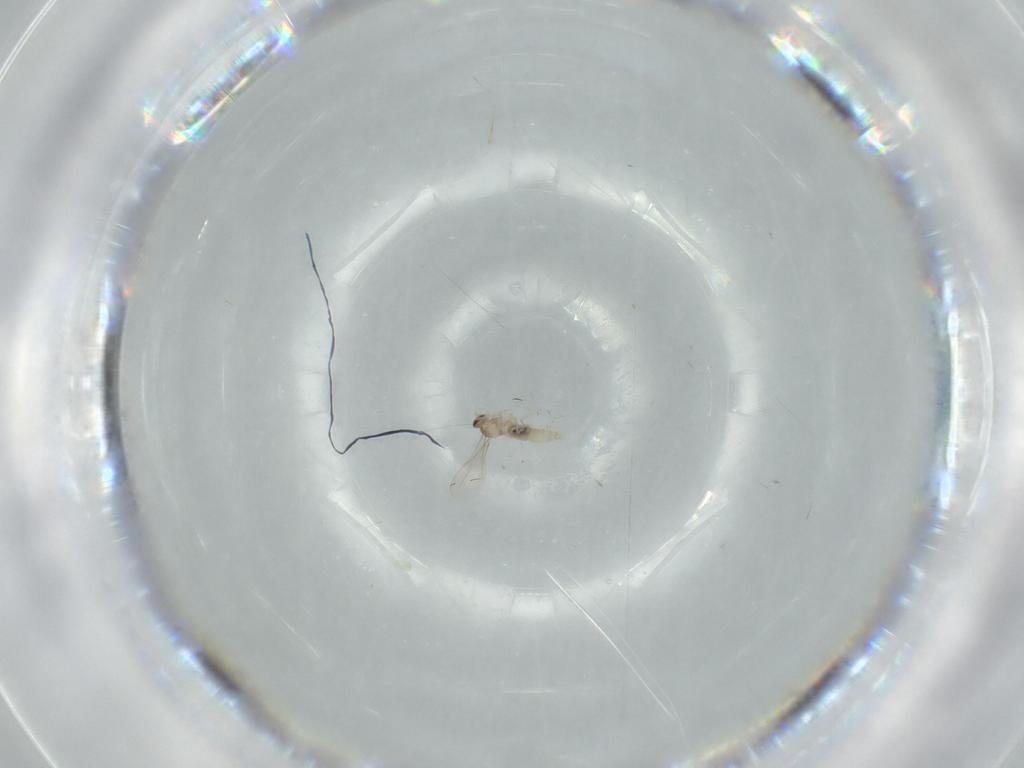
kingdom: Animalia
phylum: Arthropoda
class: Insecta
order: Diptera
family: Cecidomyiidae
